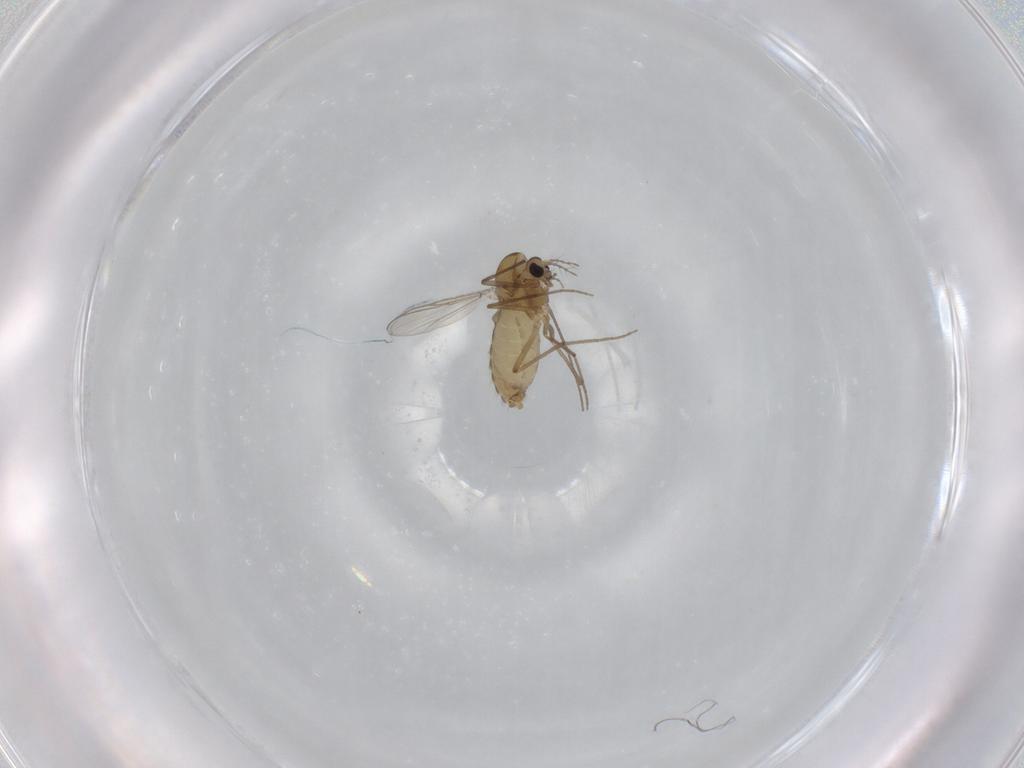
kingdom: Animalia
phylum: Arthropoda
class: Insecta
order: Diptera
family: Chironomidae
